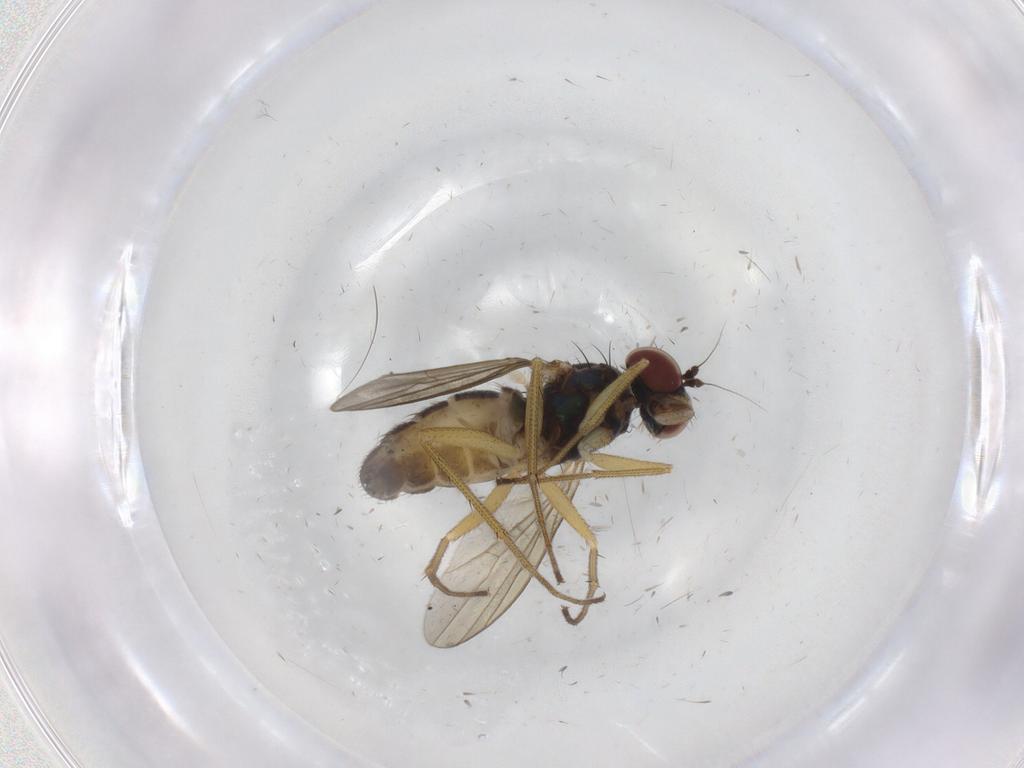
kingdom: Animalia
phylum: Arthropoda
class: Insecta
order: Diptera
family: Dolichopodidae
